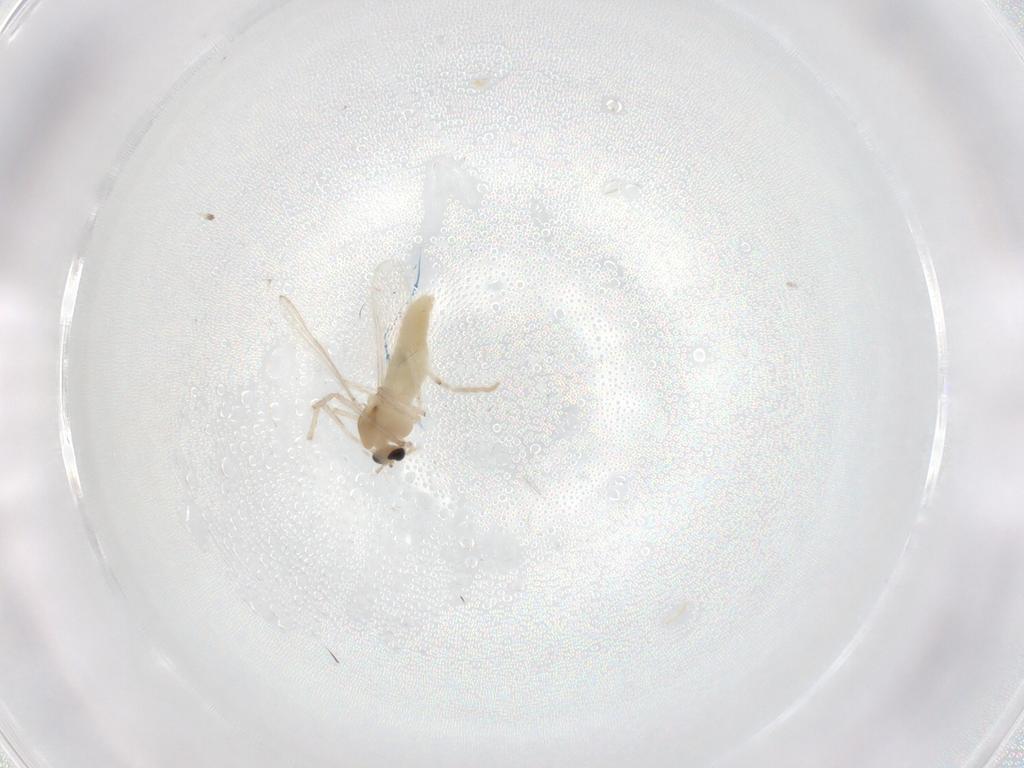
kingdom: Animalia
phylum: Arthropoda
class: Insecta
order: Diptera
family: Chironomidae
